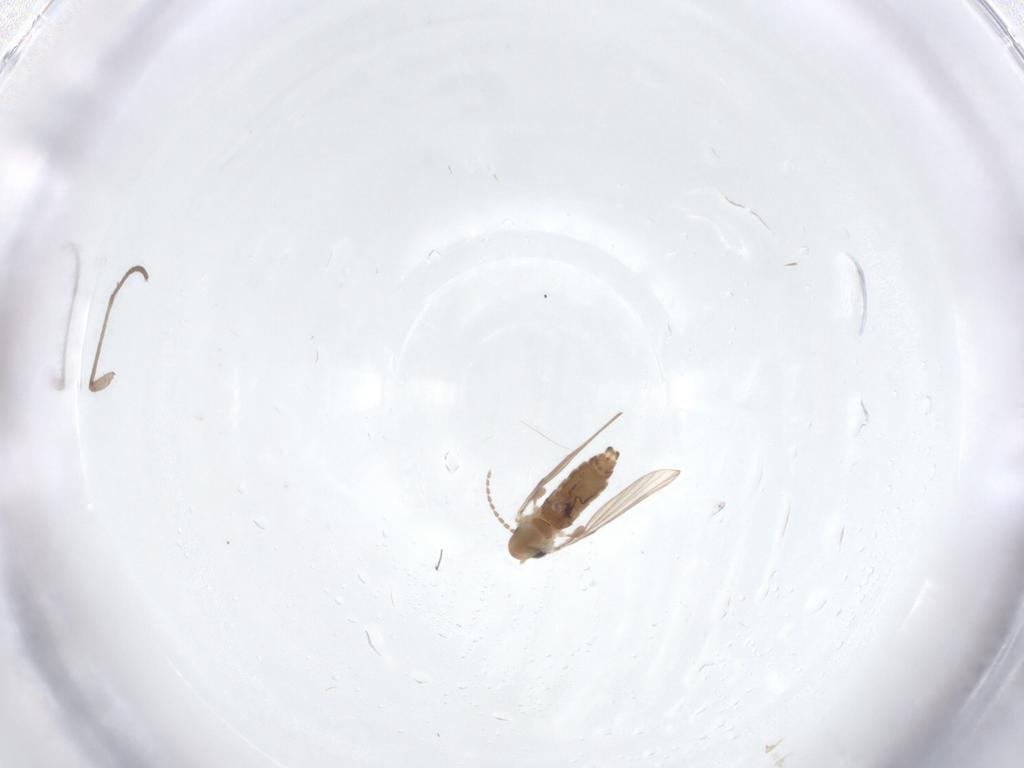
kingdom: Animalia
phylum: Arthropoda
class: Insecta
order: Diptera
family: Sciaridae
